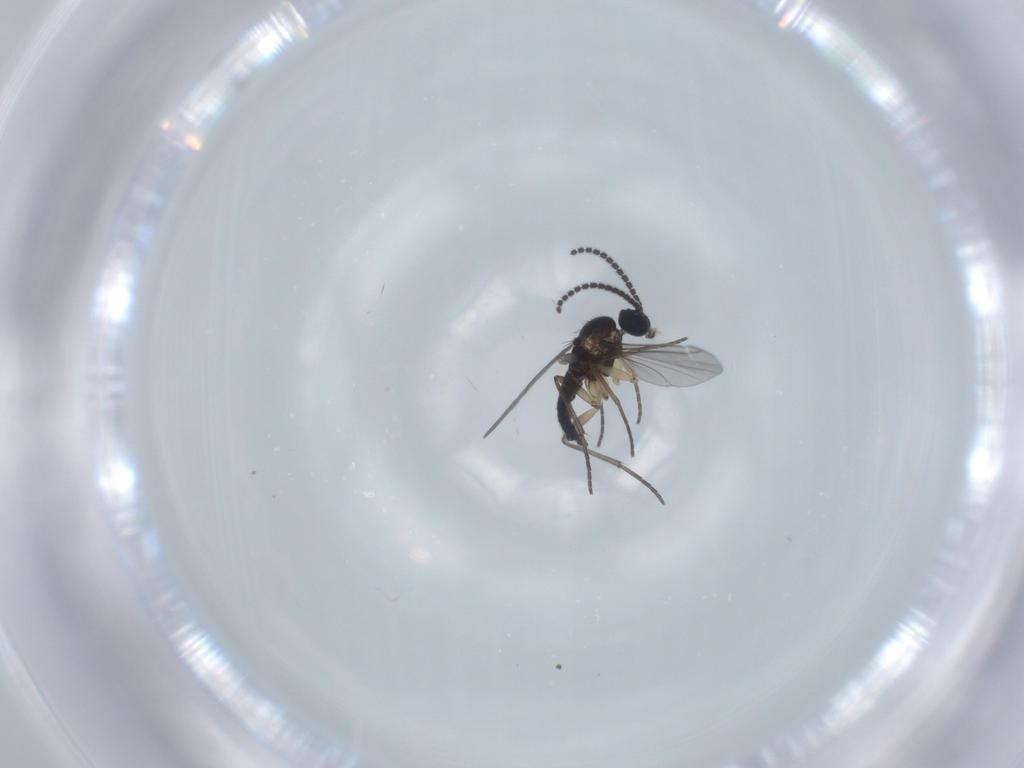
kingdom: Animalia
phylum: Arthropoda
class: Insecta
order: Diptera
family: Sciaridae
